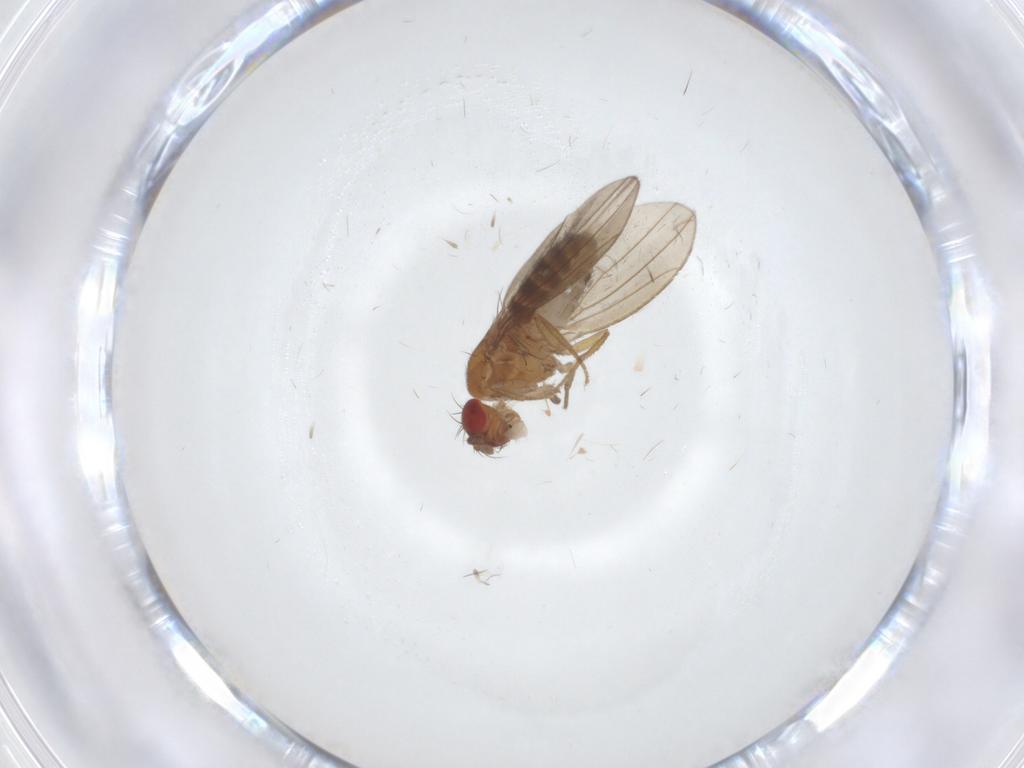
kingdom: Animalia
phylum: Arthropoda
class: Insecta
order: Diptera
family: Drosophilidae
